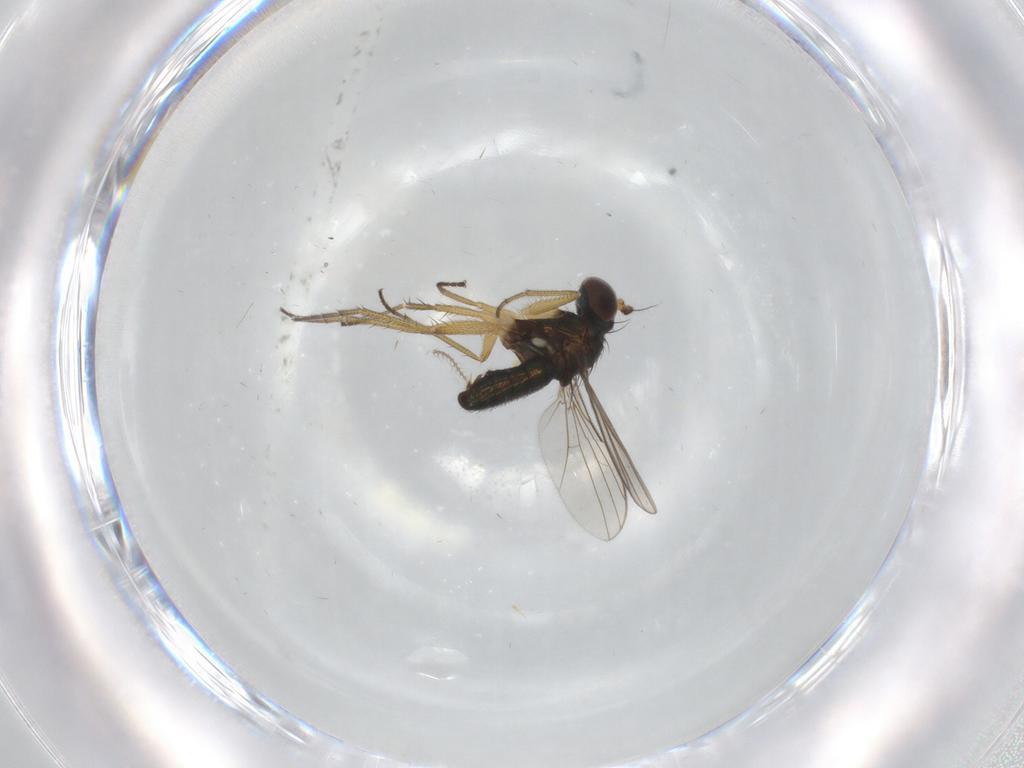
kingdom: Animalia
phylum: Arthropoda
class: Insecta
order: Diptera
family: Ceratopogonidae
